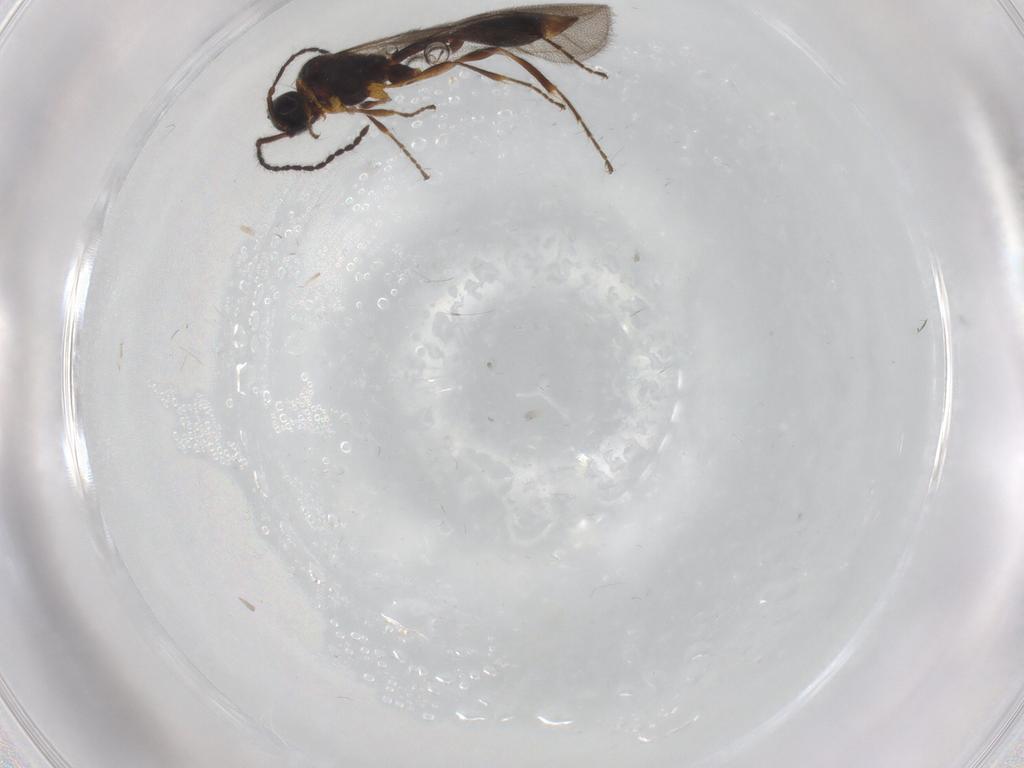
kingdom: Animalia
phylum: Arthropoda
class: Insecta
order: Hymenoptera
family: Diapriidae
